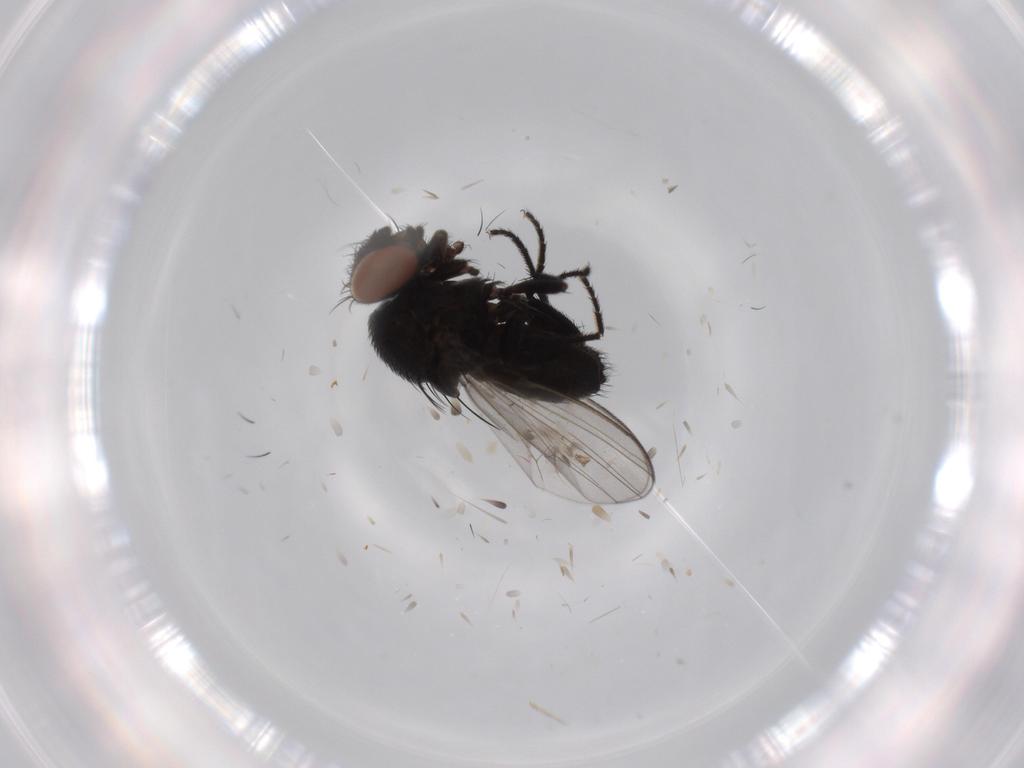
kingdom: Animalia
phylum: Arthropoda
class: Insecta
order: Diptera
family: Milichiidae
